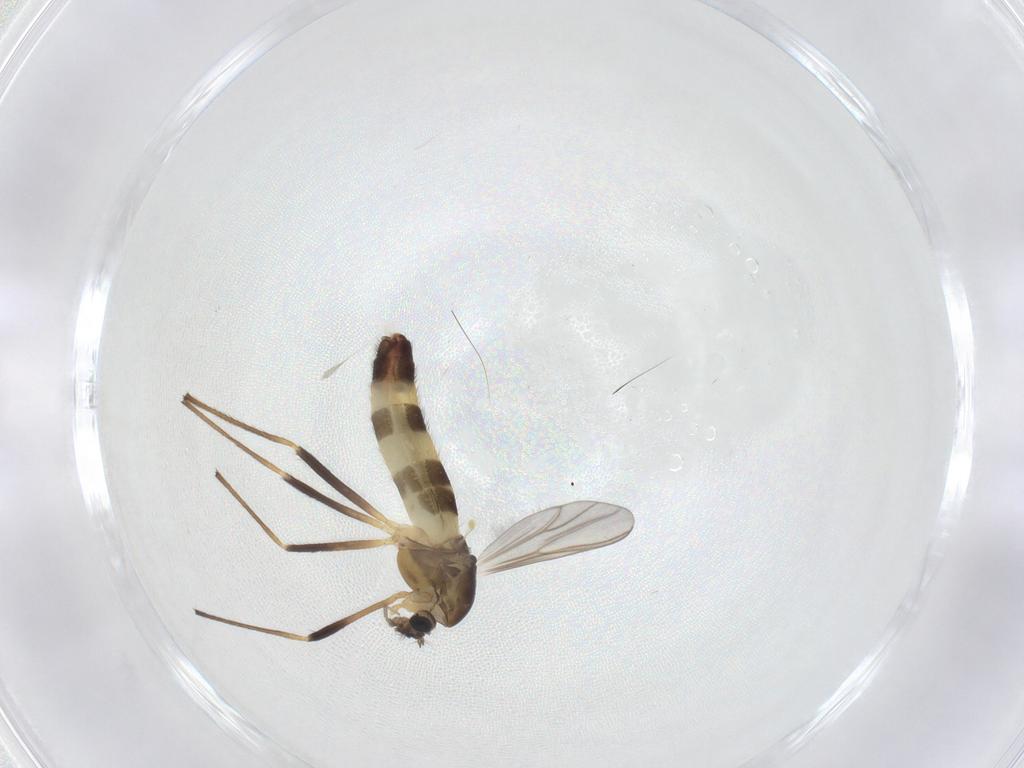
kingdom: Animalia
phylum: Arthropoda
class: Insecta
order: Diptera
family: Chironomidae
